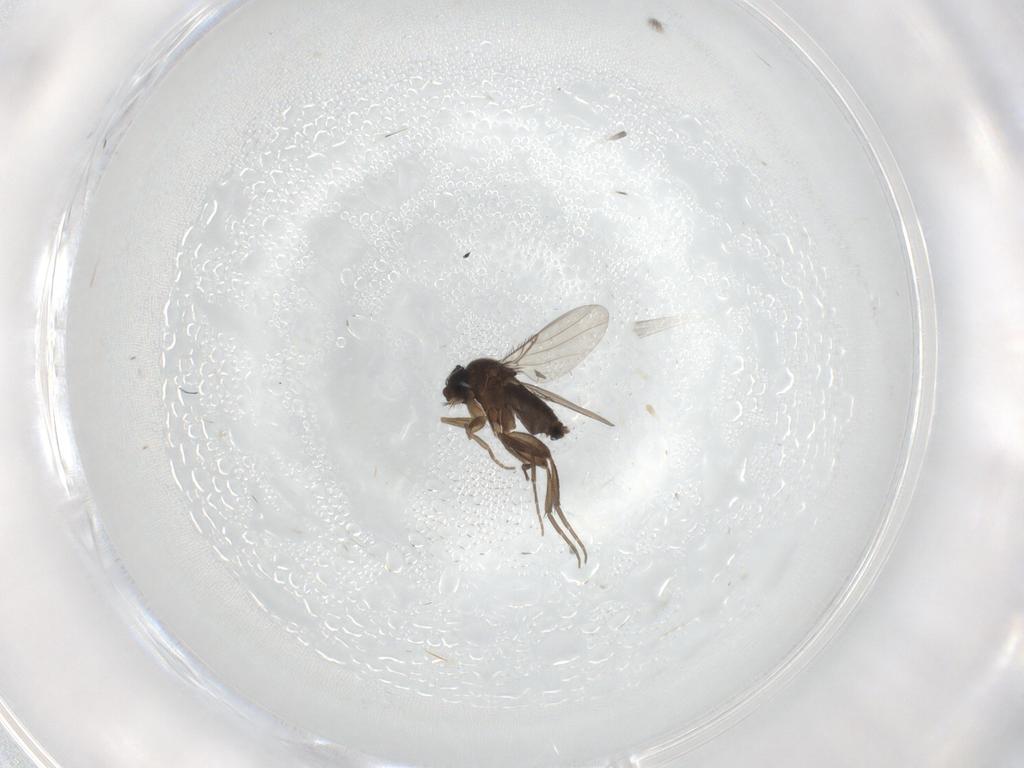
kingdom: Animalia
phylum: Arthropoda
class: Insecta
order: Diptera
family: Phoridae
